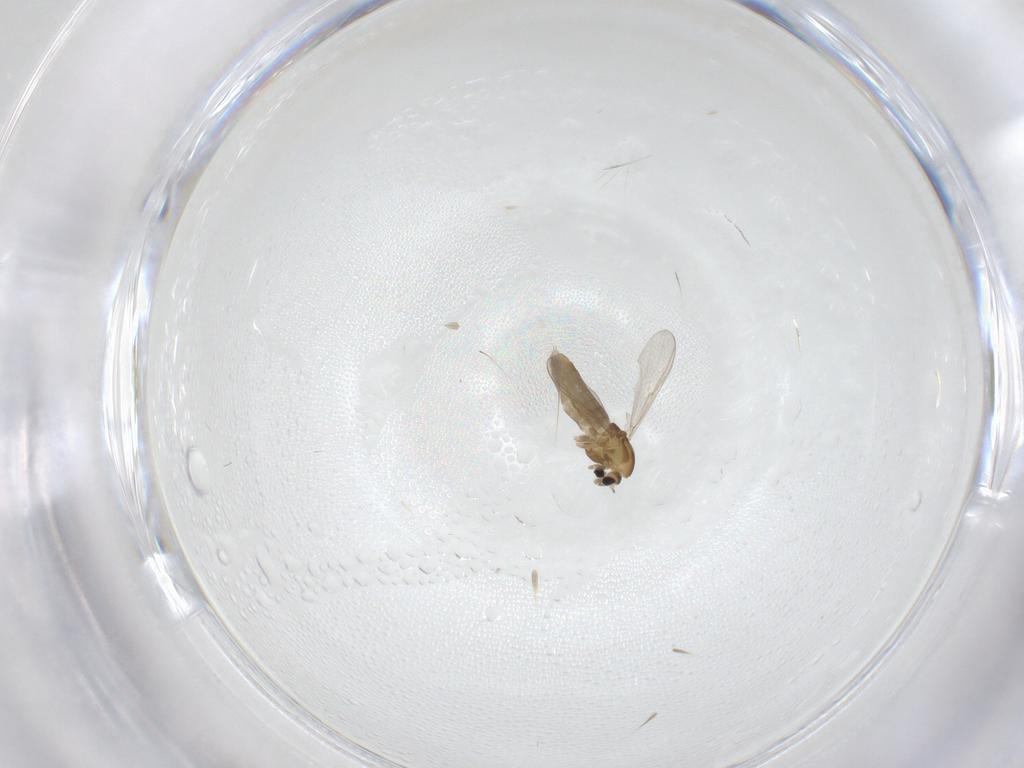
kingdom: Animalia
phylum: Arthropoda
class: Insecta
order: Diptera
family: Chironomidae
